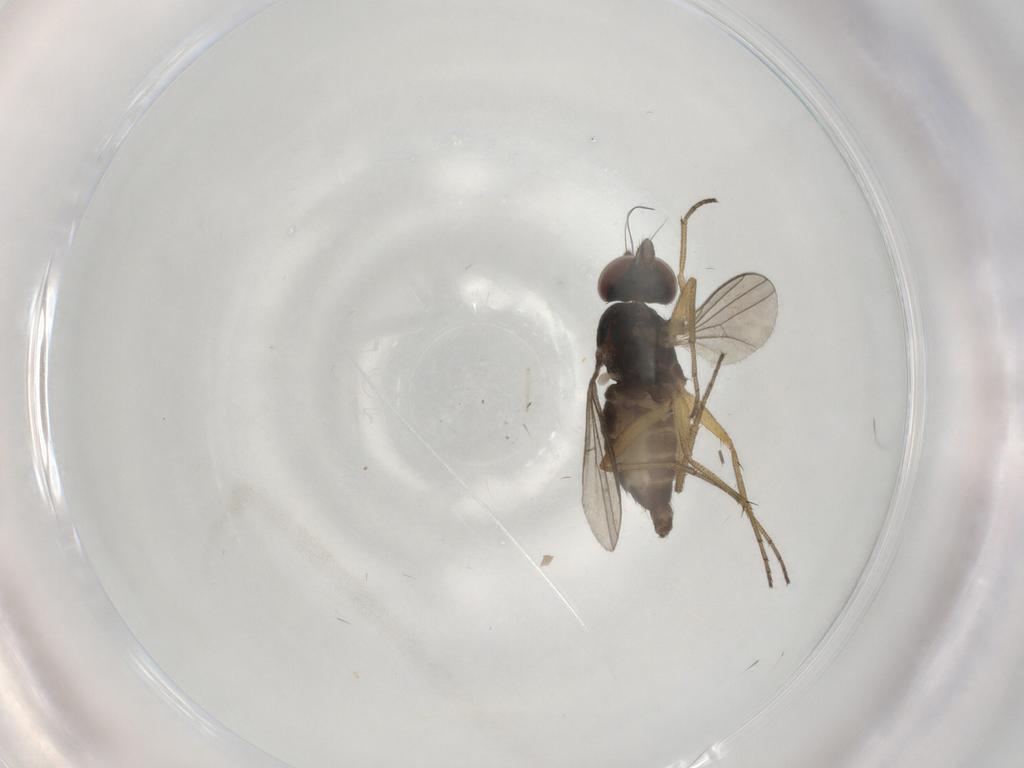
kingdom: Animalia
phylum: Arthropoda
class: Insecta
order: Diptera
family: Dolichopodidae
